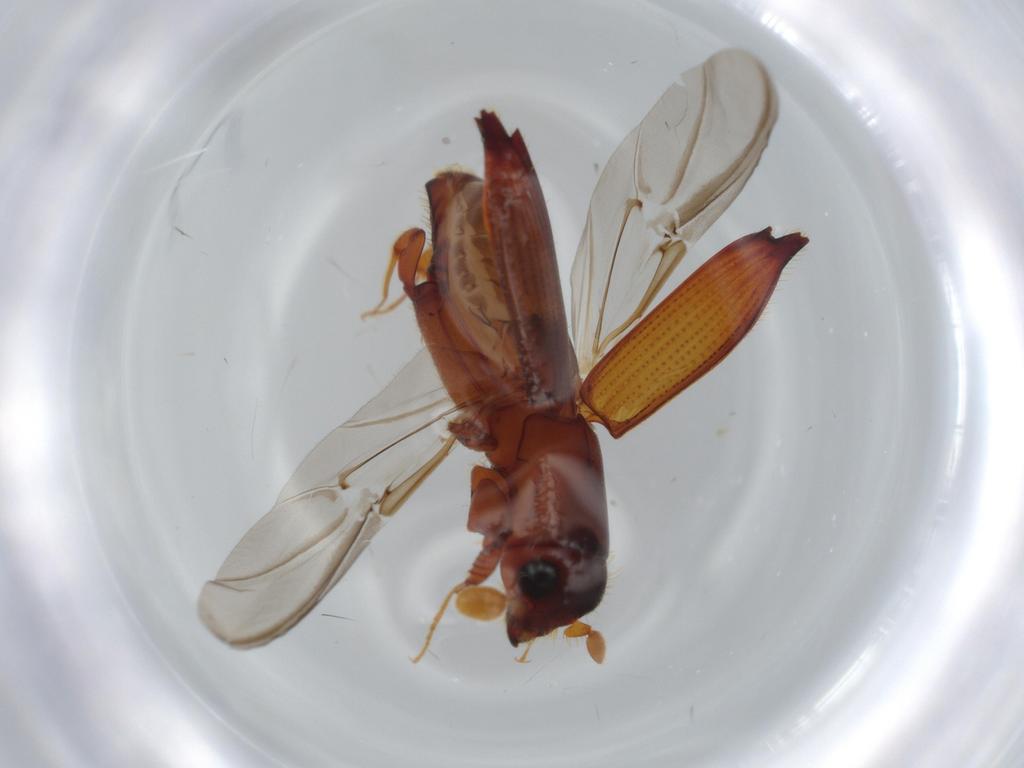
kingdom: Animalia
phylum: Arthropoda
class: Insecta
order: Coleoptera
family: Curculionidae
